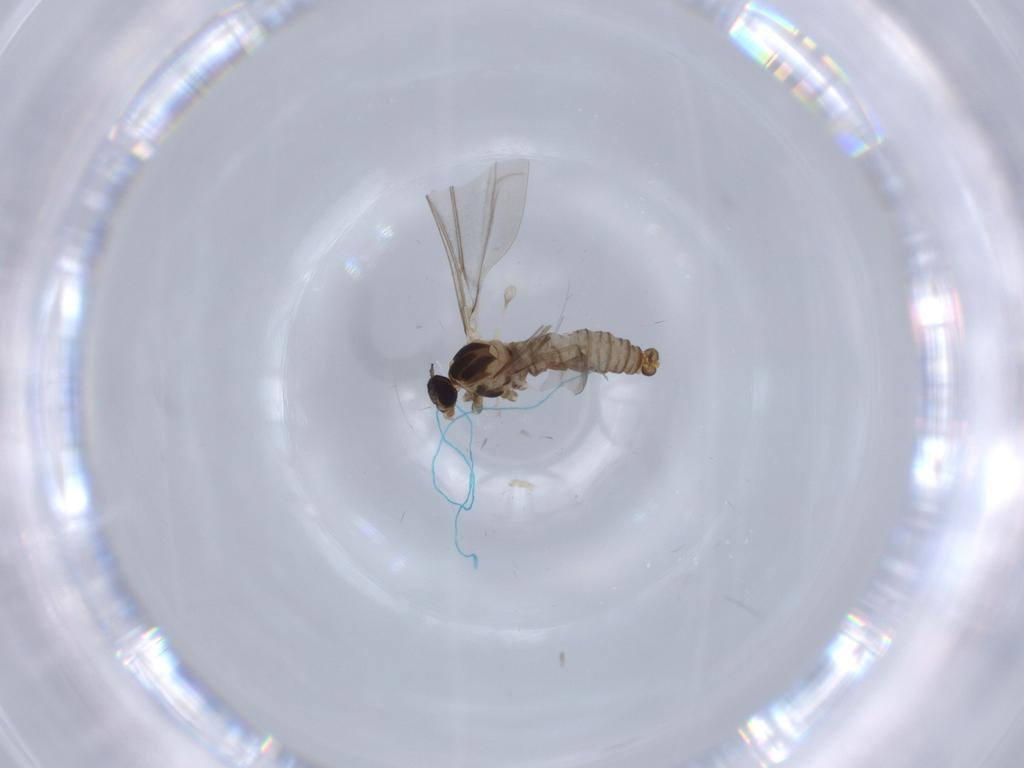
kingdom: Animalia
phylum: Arthropoda
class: Insecta
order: Diptera
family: Cecidomyiidae
